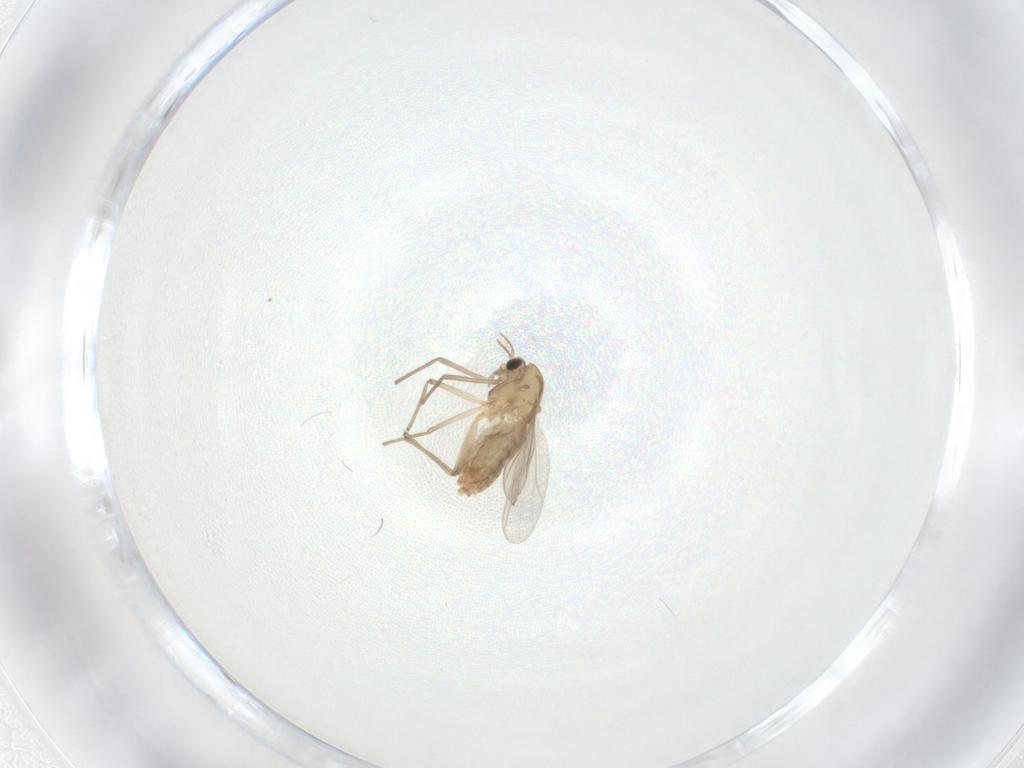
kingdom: Animalia
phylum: Arthropoda
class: Insecta
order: Diptera
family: Chironomidae
